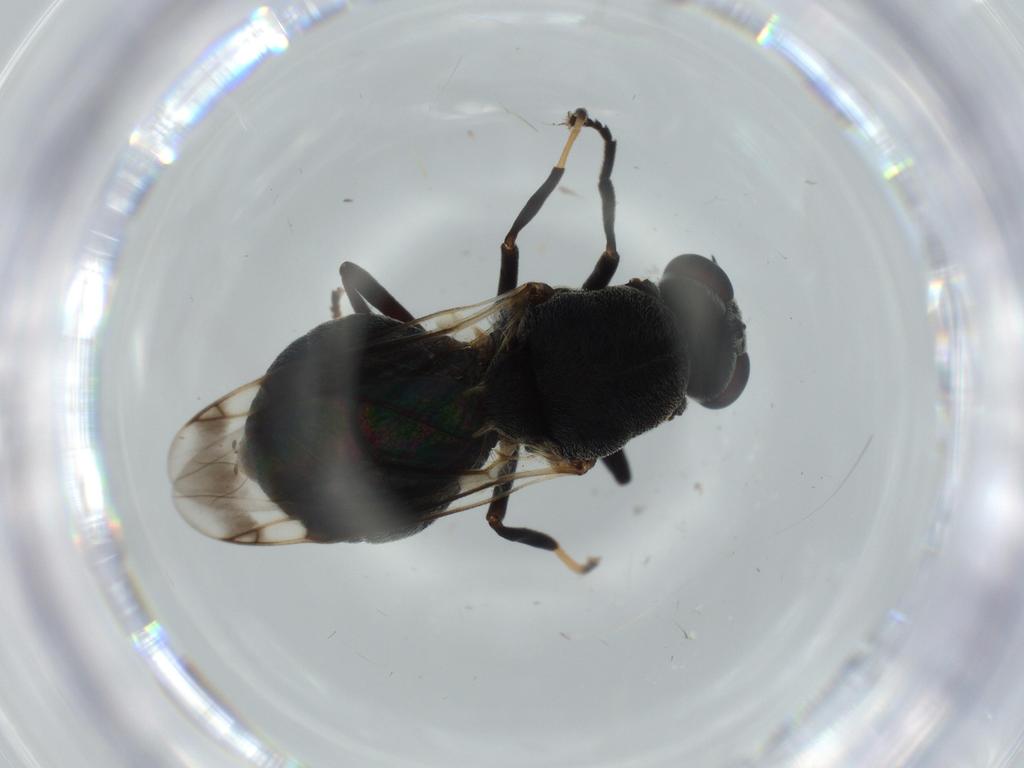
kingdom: Animalia
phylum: Arthropoda
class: Insecta
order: Diptera
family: Stratiomyidae
